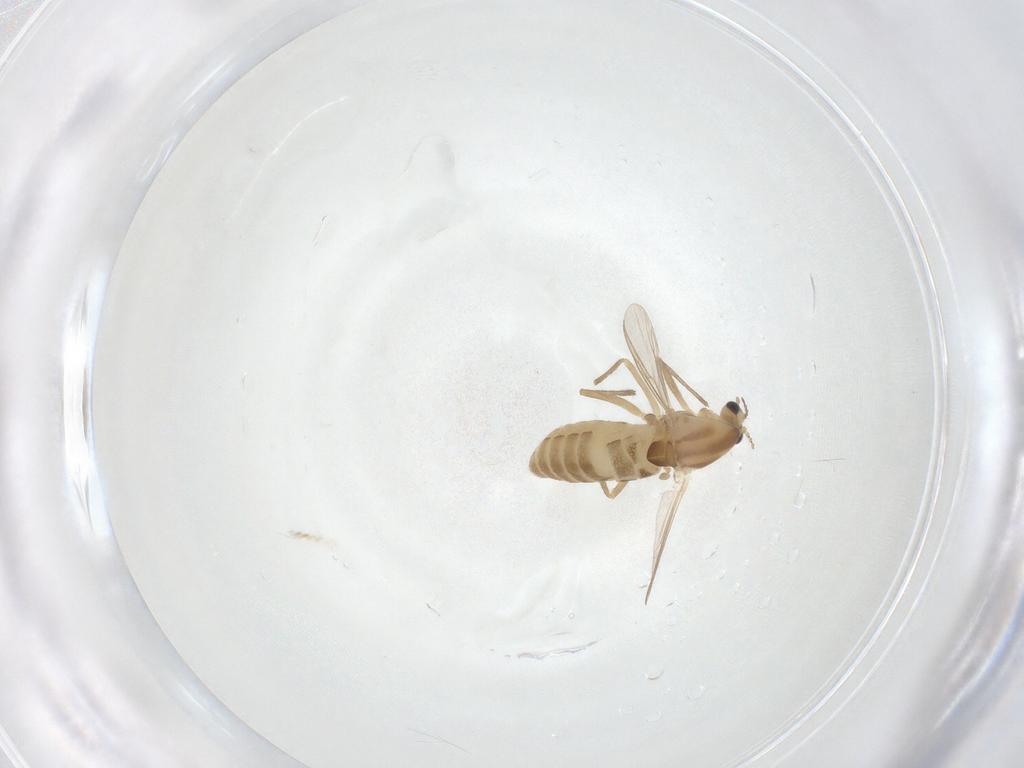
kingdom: Animalia
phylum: Arthropoda
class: Insecta
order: Diptera
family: Chironomidae
